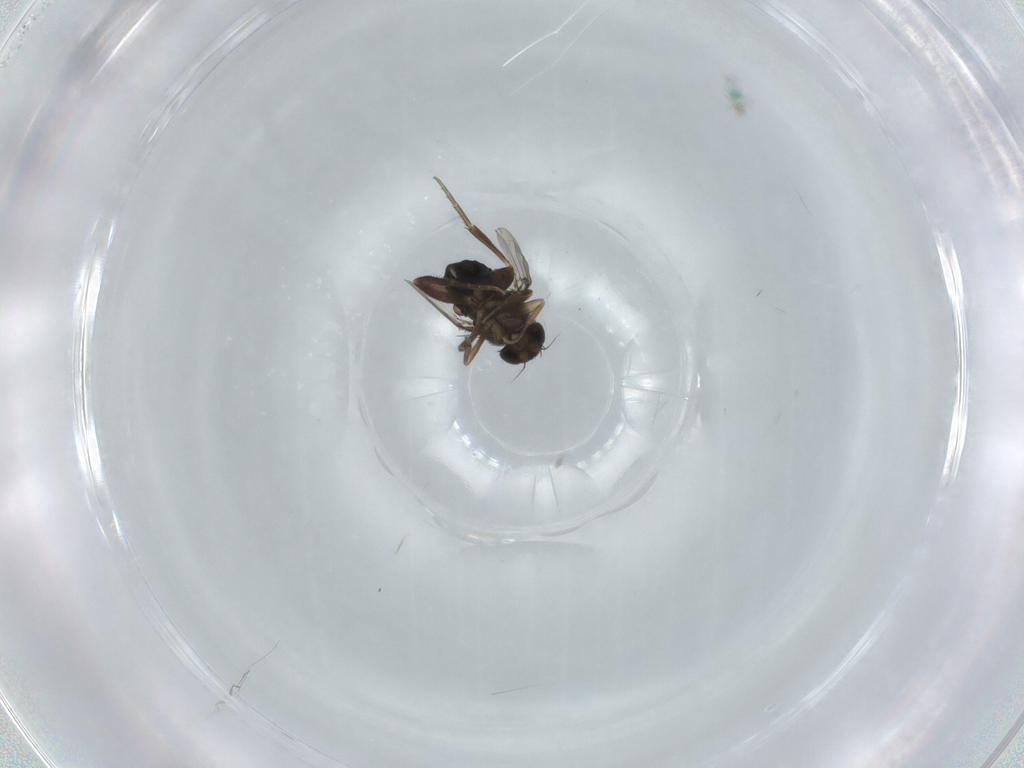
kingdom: Animalia
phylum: Arthropoda
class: Insecta
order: Diptera
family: Phoridae
